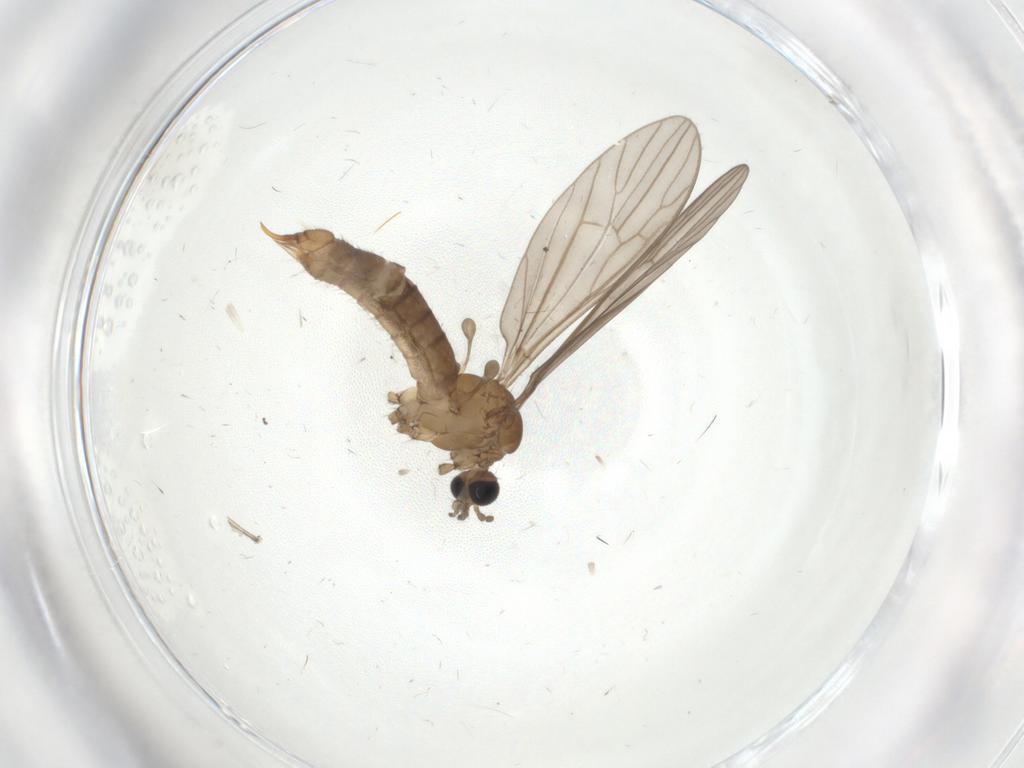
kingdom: Animalia
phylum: Arthropoda
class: Insecta
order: Diptera
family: Limoniidae
